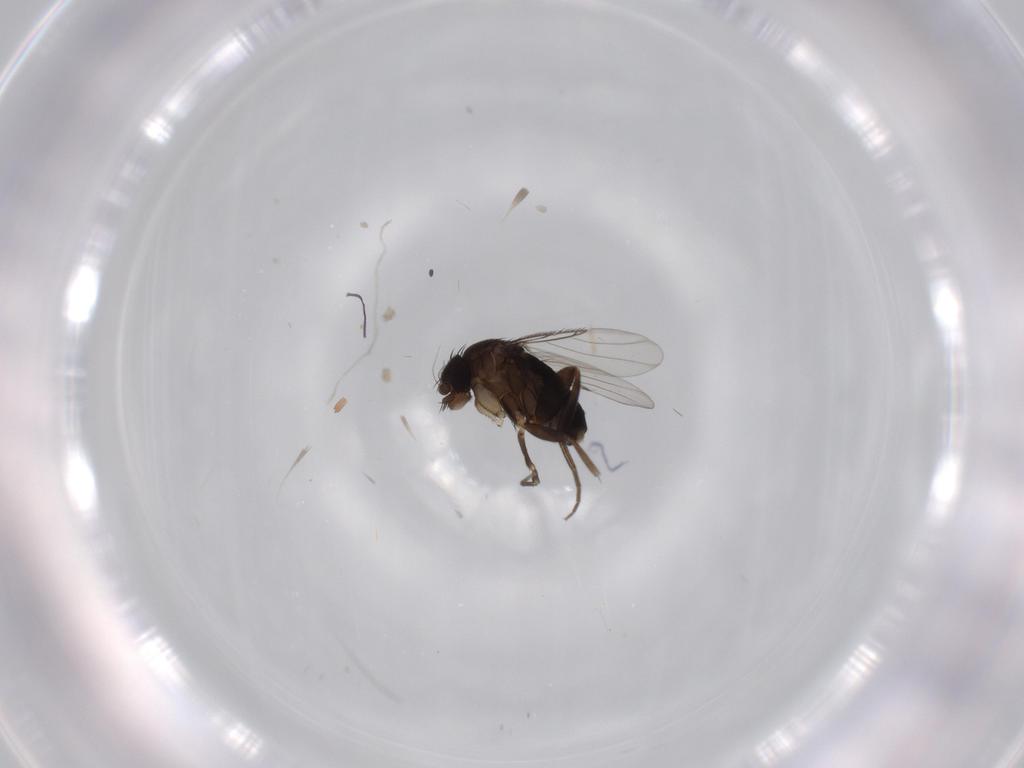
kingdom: Animalia
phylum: Arthropoda
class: Insecta
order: Diptera
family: Phoridae
